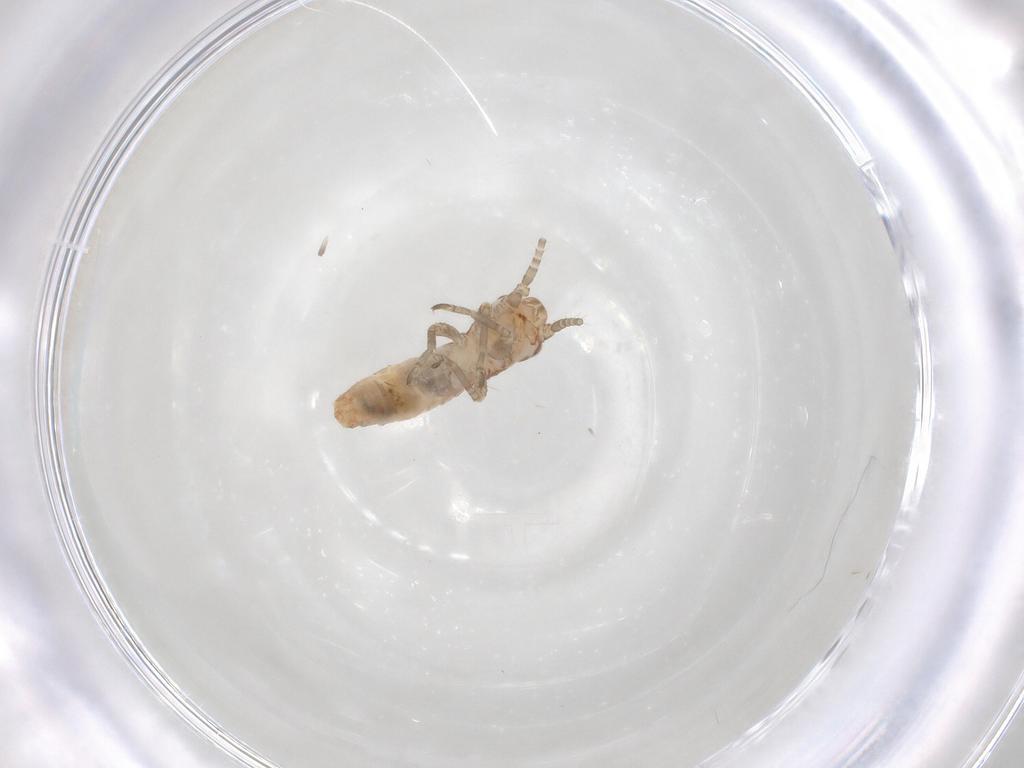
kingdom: Animalia
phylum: Arthropoda
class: Insecta
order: Orthoptera
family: Mogoplistidae
